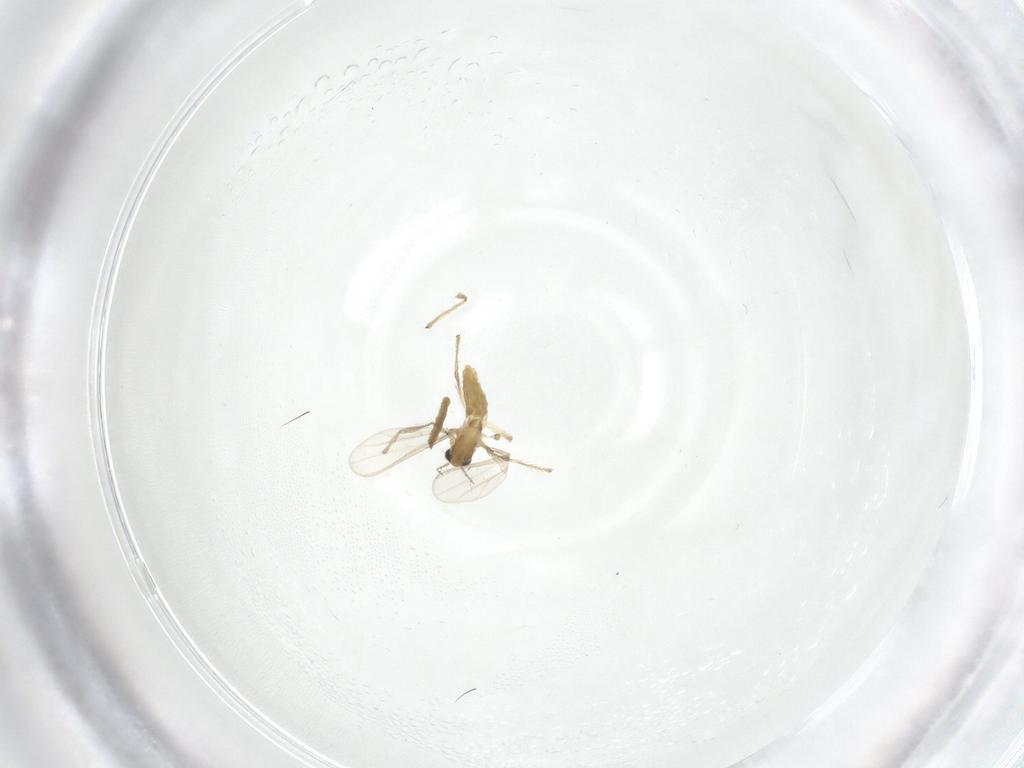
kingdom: Animalia
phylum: Arthropoda
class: Insecta
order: Diptera
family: Chironomidae
